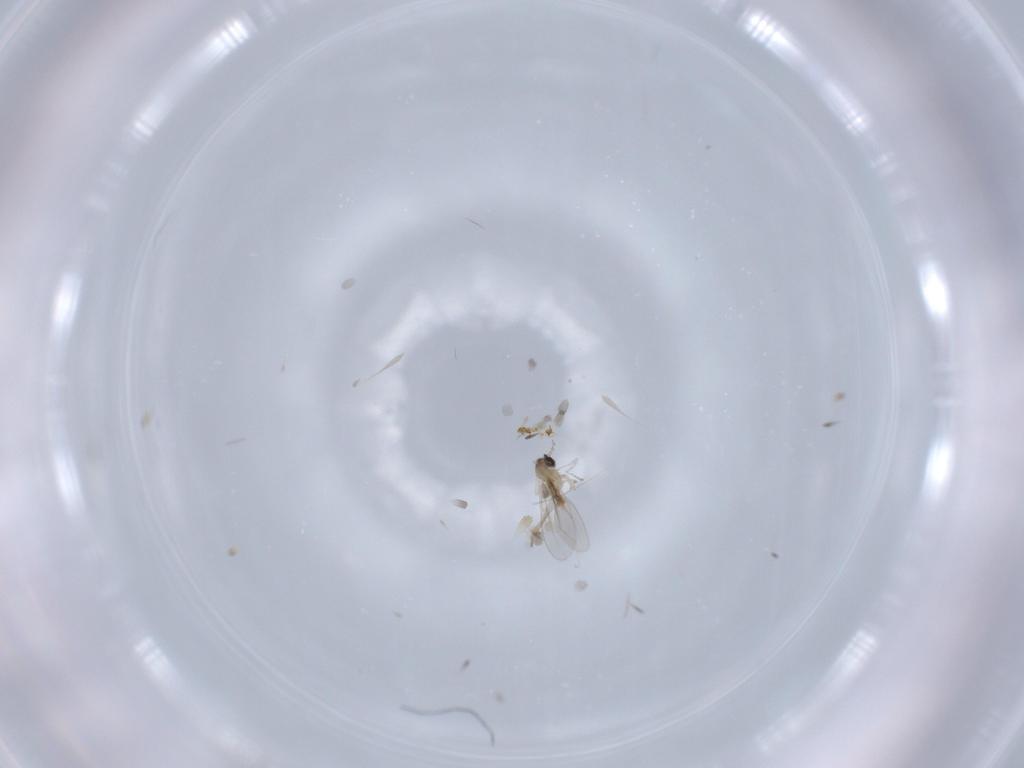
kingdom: Animalia
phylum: Arthropoda
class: Insecta
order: Diptera
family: Cecidomyiidae
